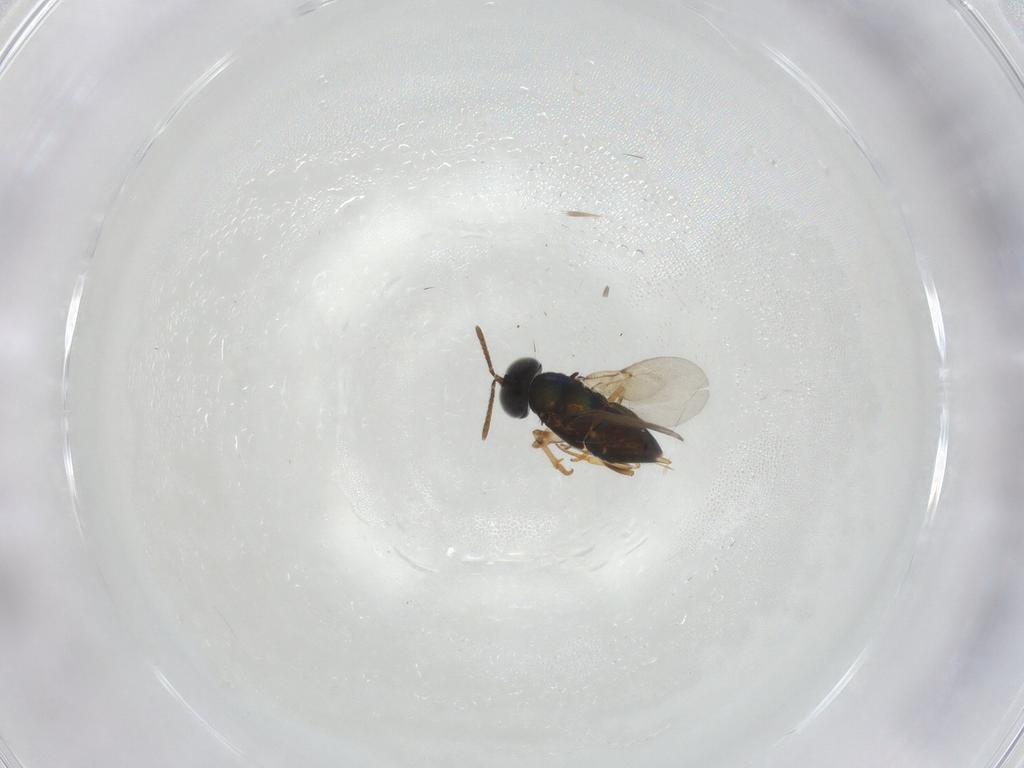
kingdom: Animalia
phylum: Arthropoda
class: Insecta
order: Hymenoptera
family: Encyrtidae
